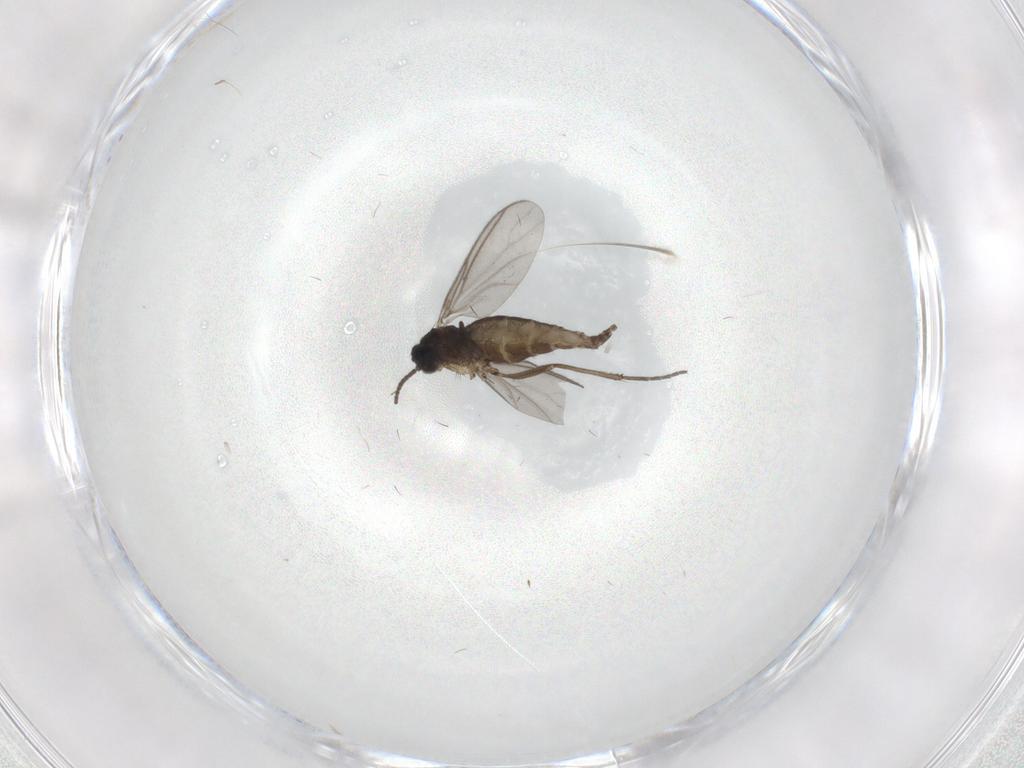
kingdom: Animalia
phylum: Arthropoda
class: Insecta
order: Diptera
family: Sciaridae
